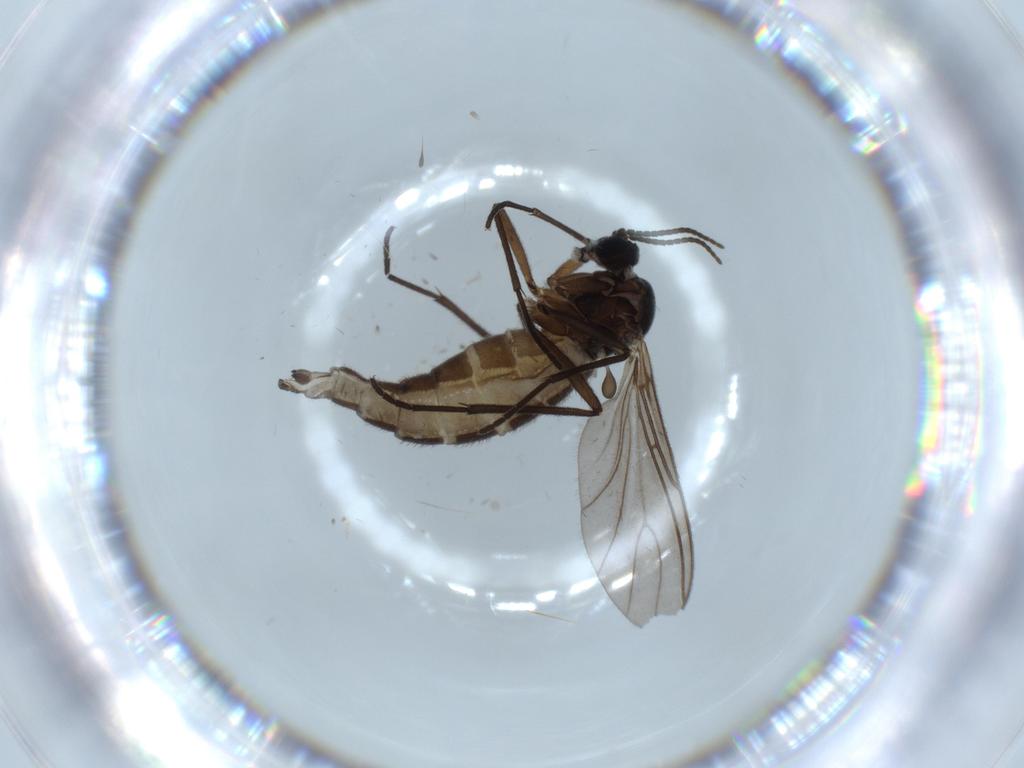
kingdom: Animalia
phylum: Arthropoda
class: Insecta
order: Diptera
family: Sciaridae
